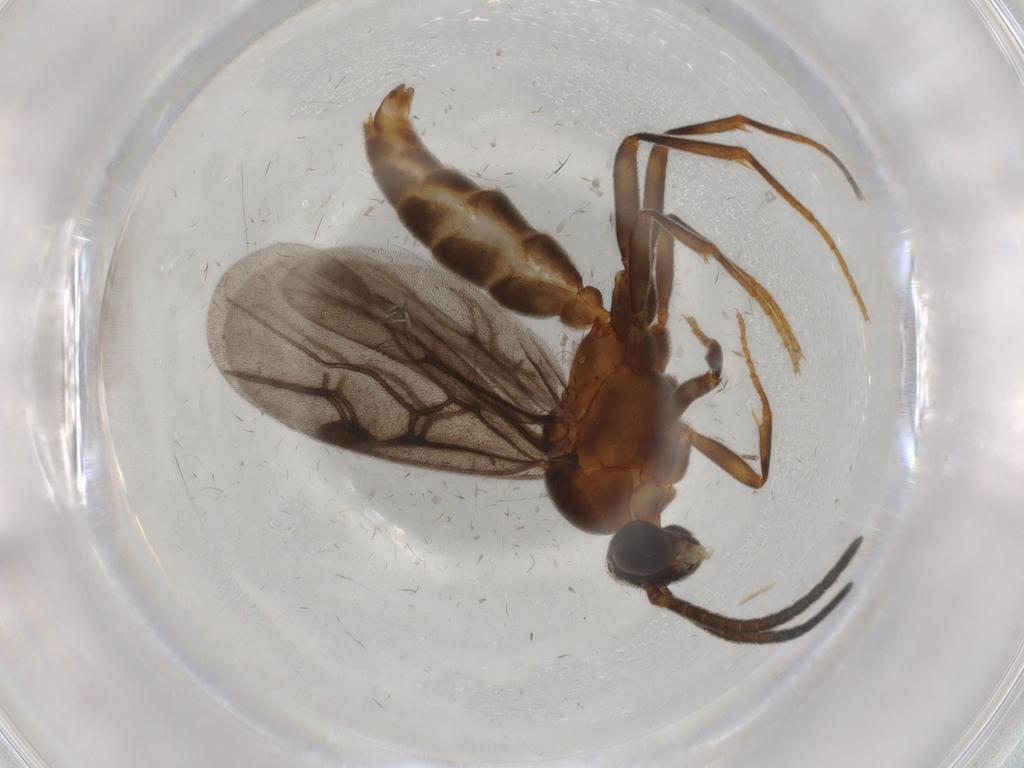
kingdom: Animalia
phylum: Arthropoda
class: Insecta
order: Hymenoptera
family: Formicidae
